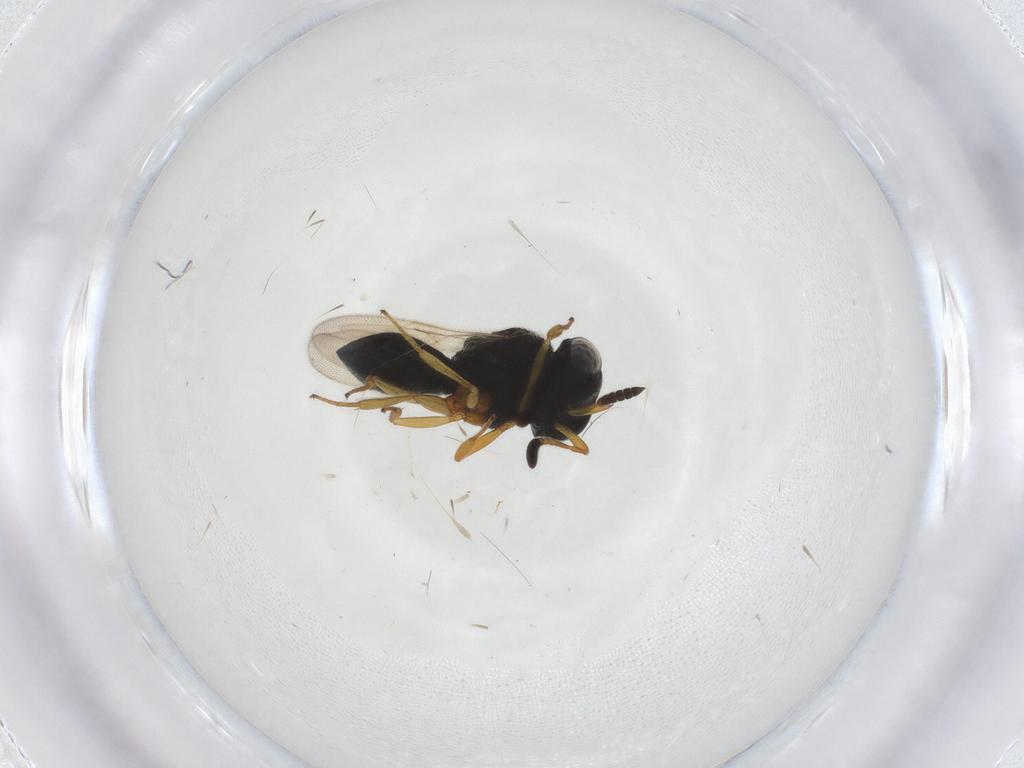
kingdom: Animalia
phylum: Arthropoda
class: Insecta
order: Hymenoptera
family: Scelionidae
